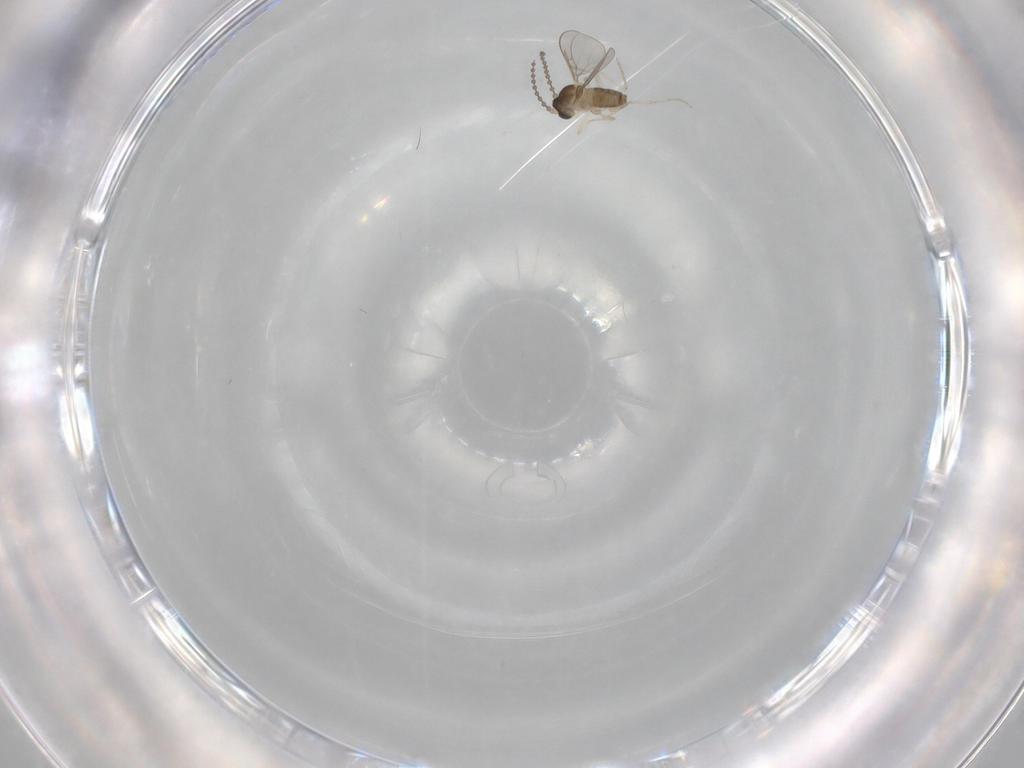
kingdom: Animalia
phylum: Arthropoda
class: Insecta
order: Diptera
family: Cecidomyiidae
